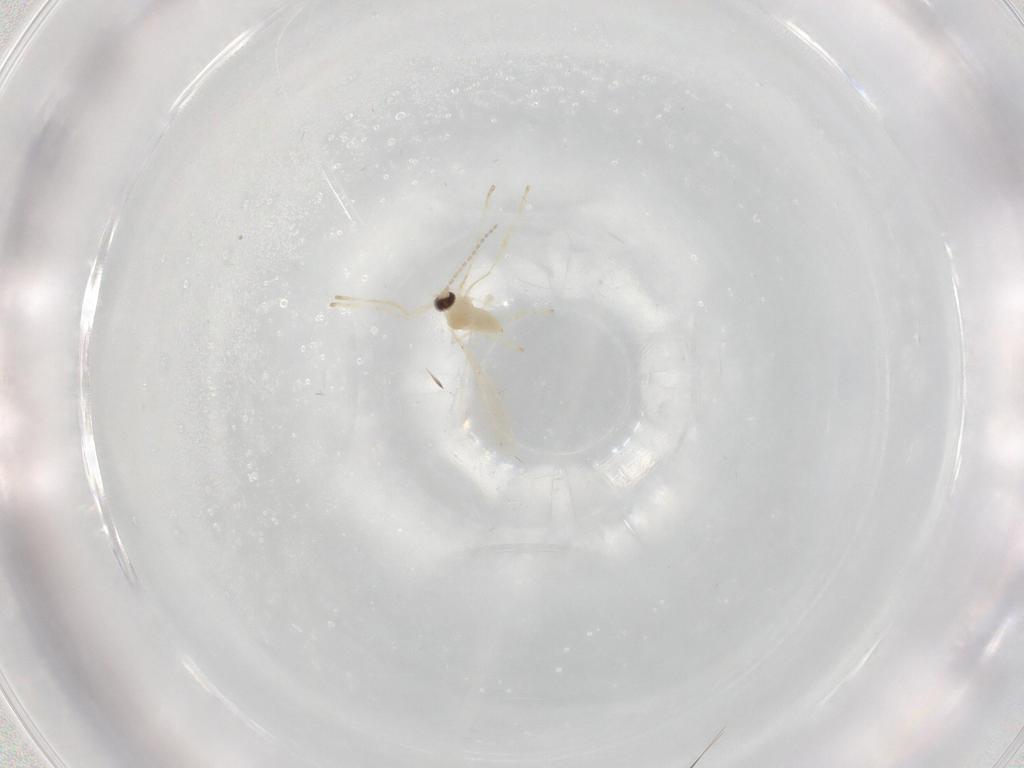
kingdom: Animalia
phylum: Arthropoda
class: Insecta
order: Diptera
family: Cecidomyiidae
